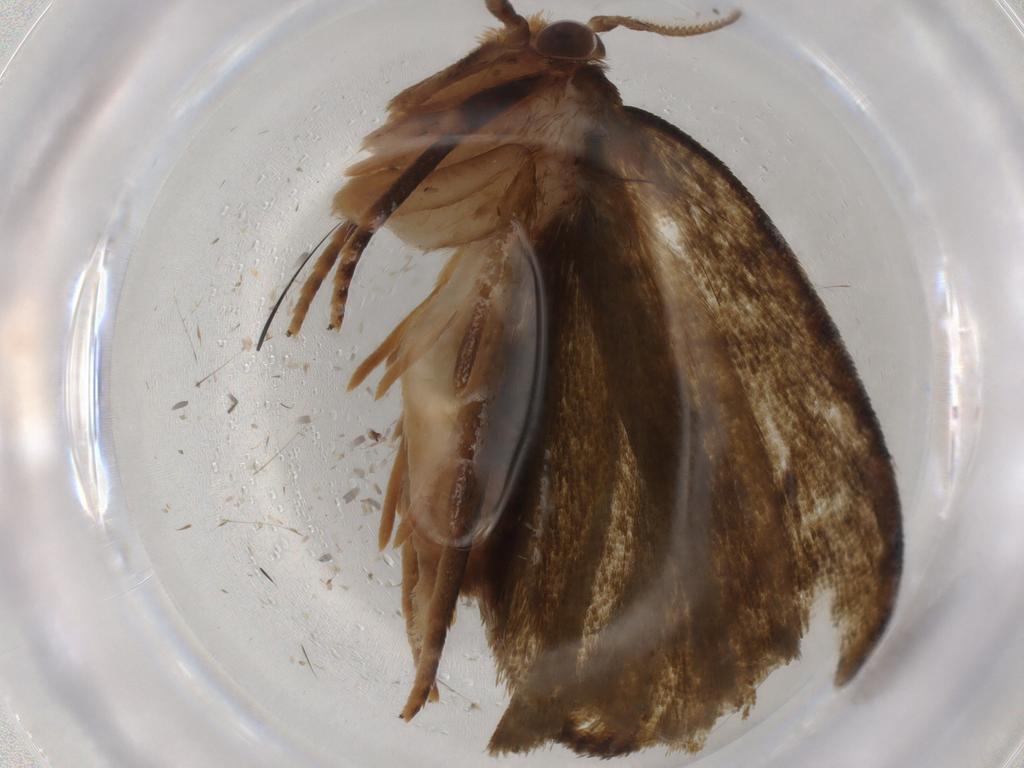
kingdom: Animalia
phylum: Arthropoda
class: Insecta
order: Lepidoptera
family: Geometridae
